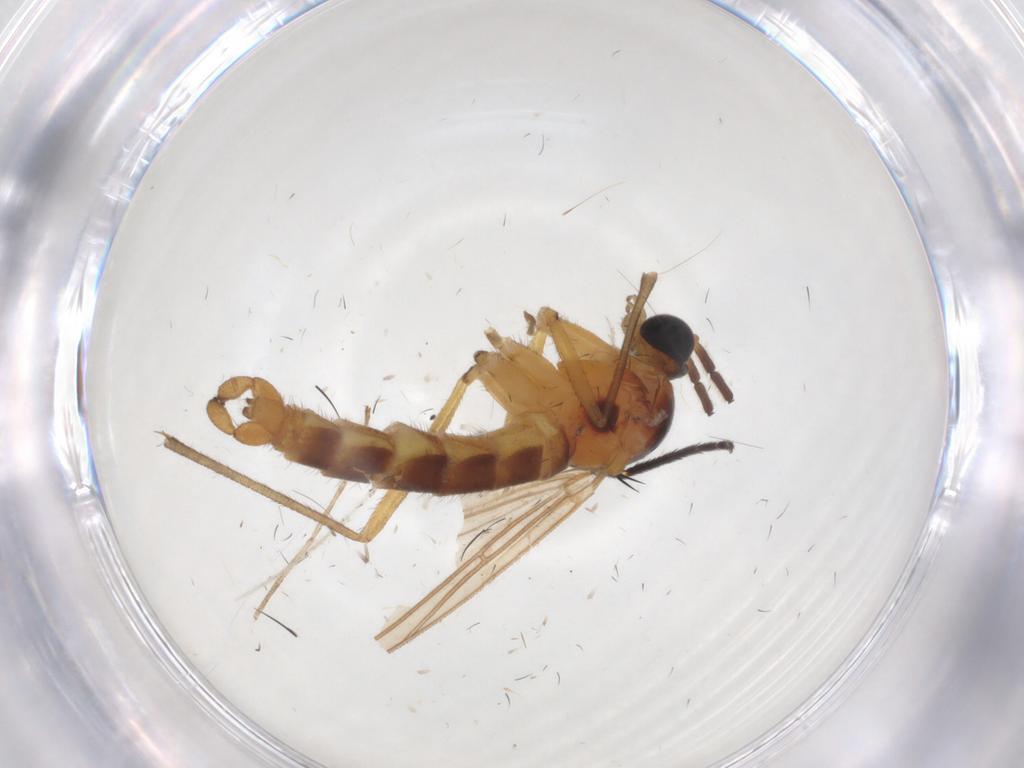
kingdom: Animalia
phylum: Arthropoda
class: Insecta
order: Diptera
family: Sciaridae
